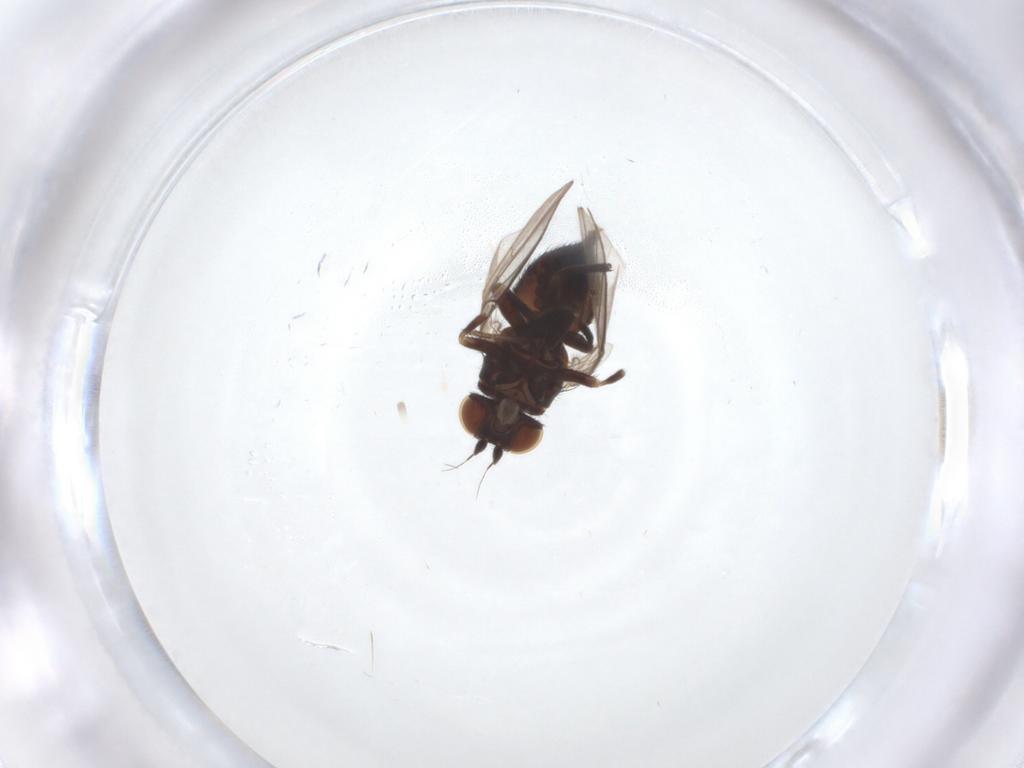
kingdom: Animalia
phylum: Arthropoda
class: Insecta
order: Diptera
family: Agromyzidae
